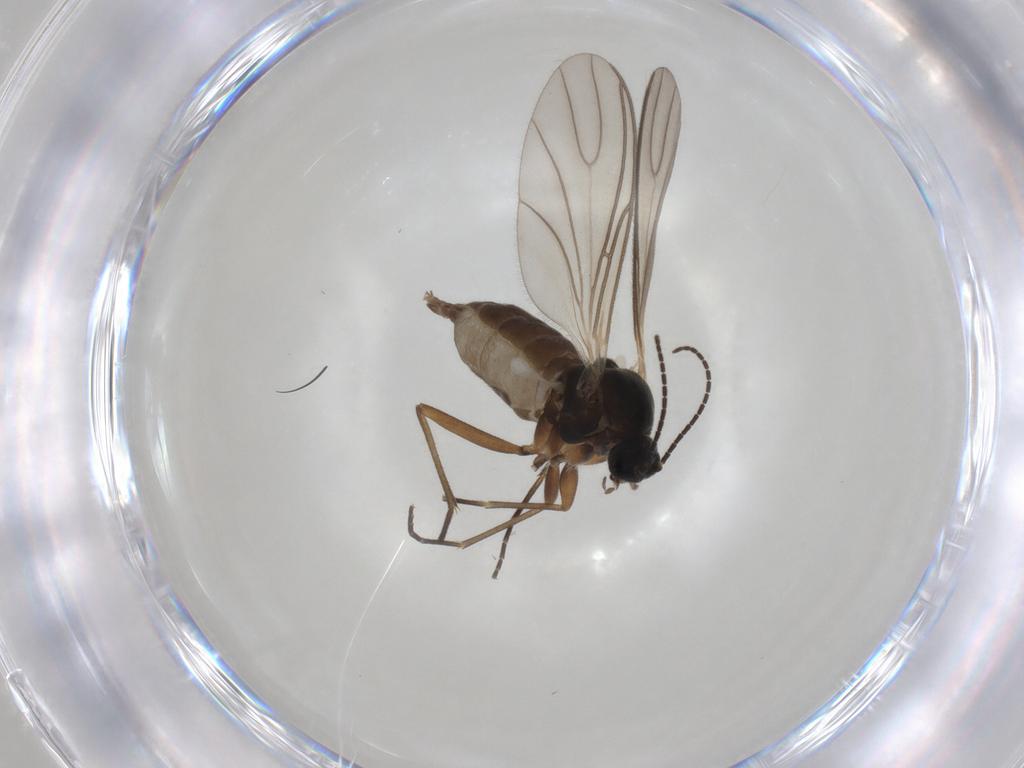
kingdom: Animalia
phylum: Arthropoda
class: Insecta
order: Diptera
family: Sciaridae
